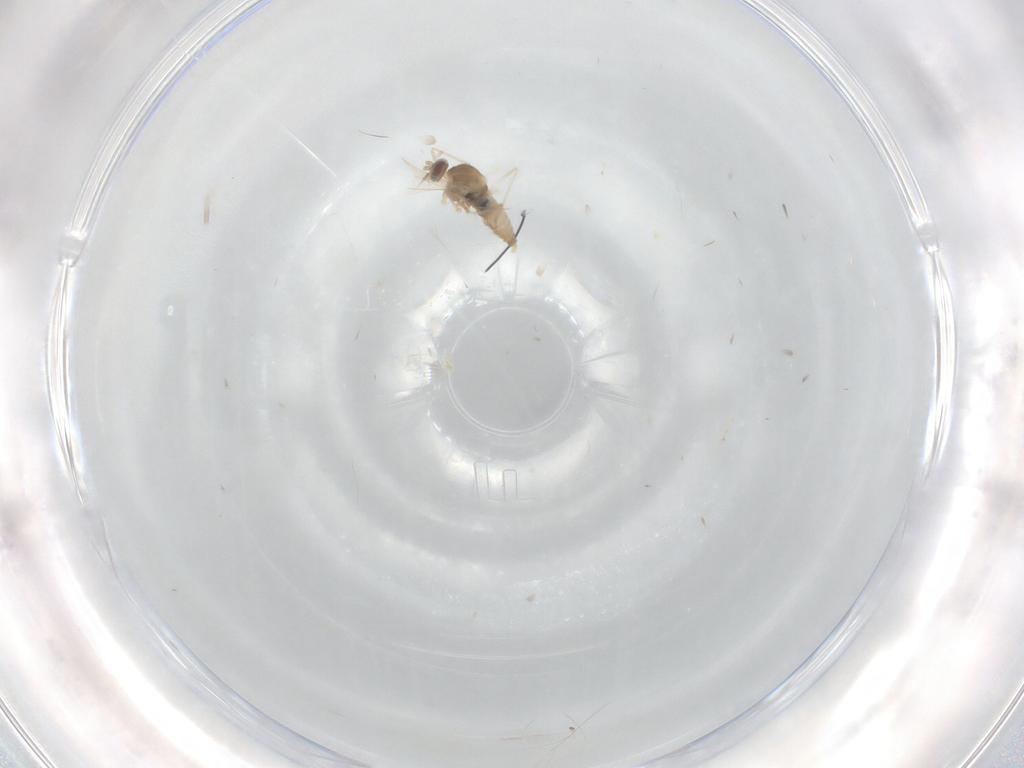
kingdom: Animalia
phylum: Arthropoda
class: Insecta
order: Diptera
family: Cecidomyiidae
